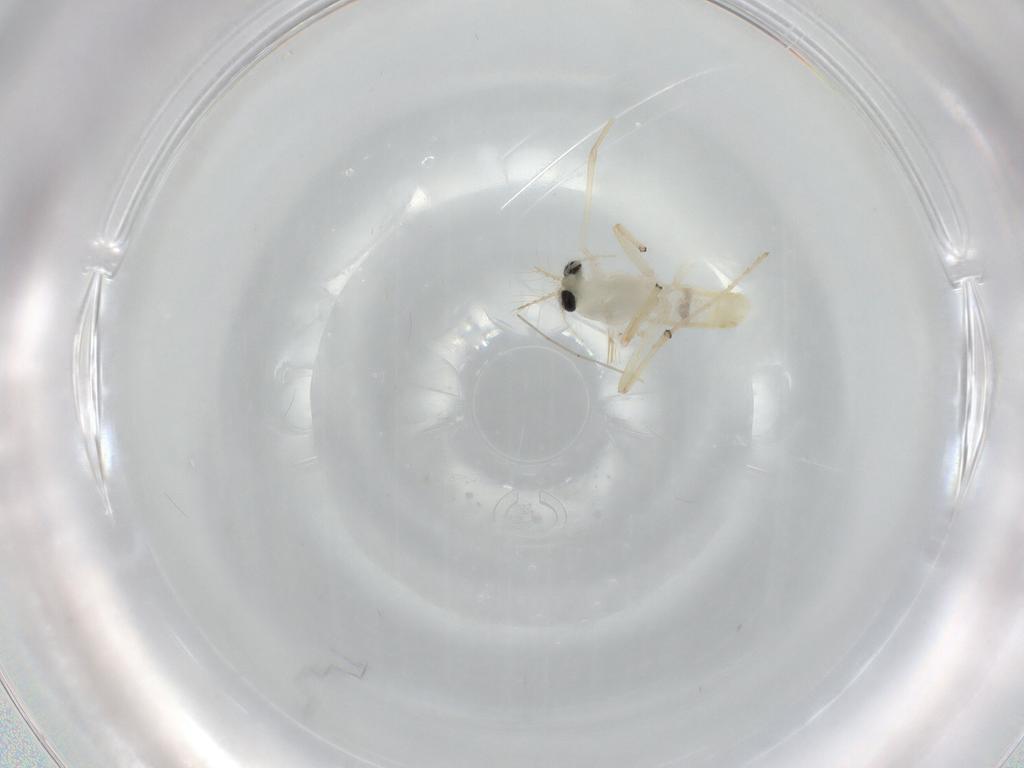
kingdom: Animalia
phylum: Arthropoda
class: Insecta
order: Diptera
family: Chironomidae
